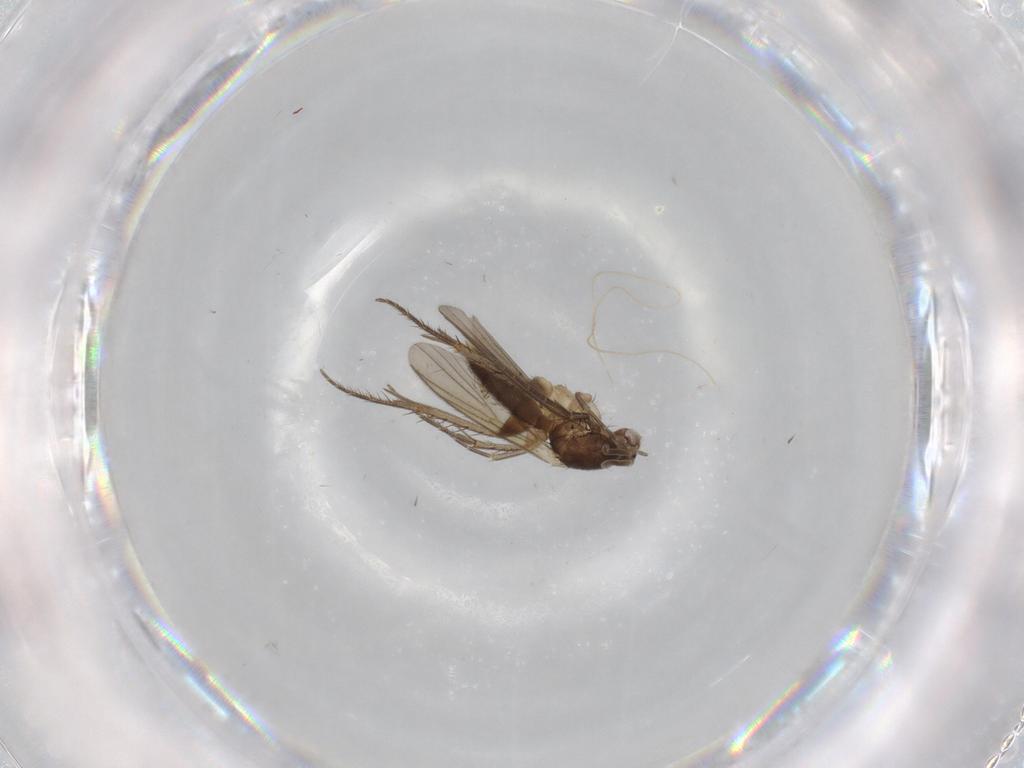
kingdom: Animalia
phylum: Arthropoda
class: Insecta
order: Diptera
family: Mycetophilidae
